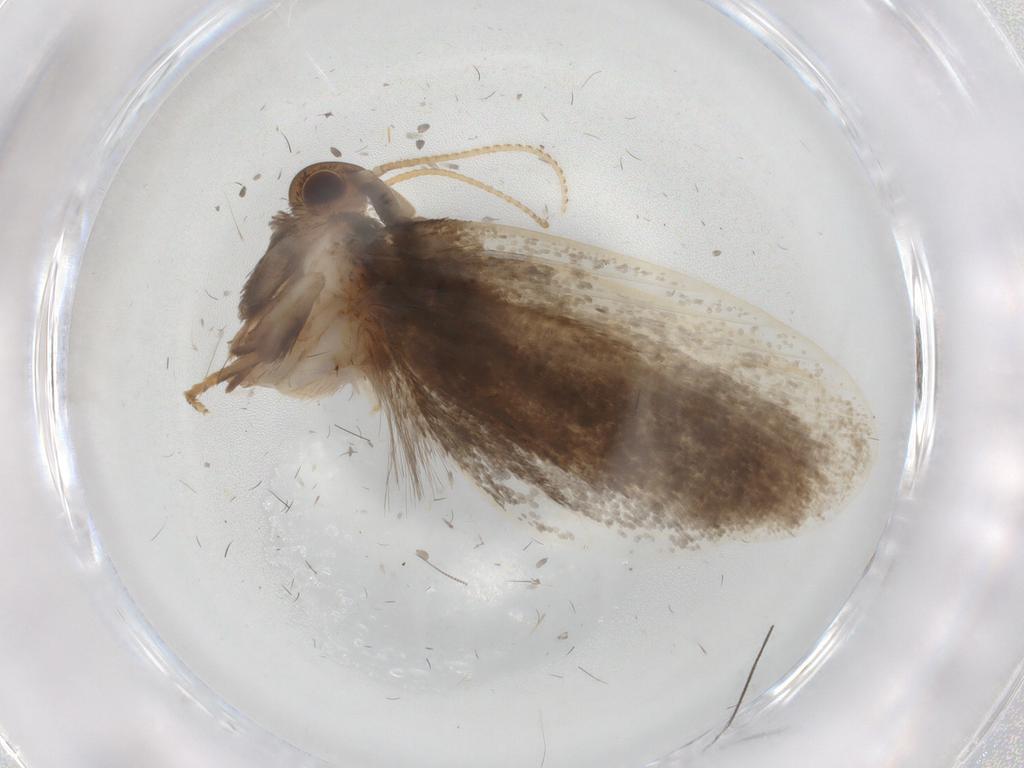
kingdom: Animalia
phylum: Arthropoda
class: Insecta
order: Lepidoptera
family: Tineidae
